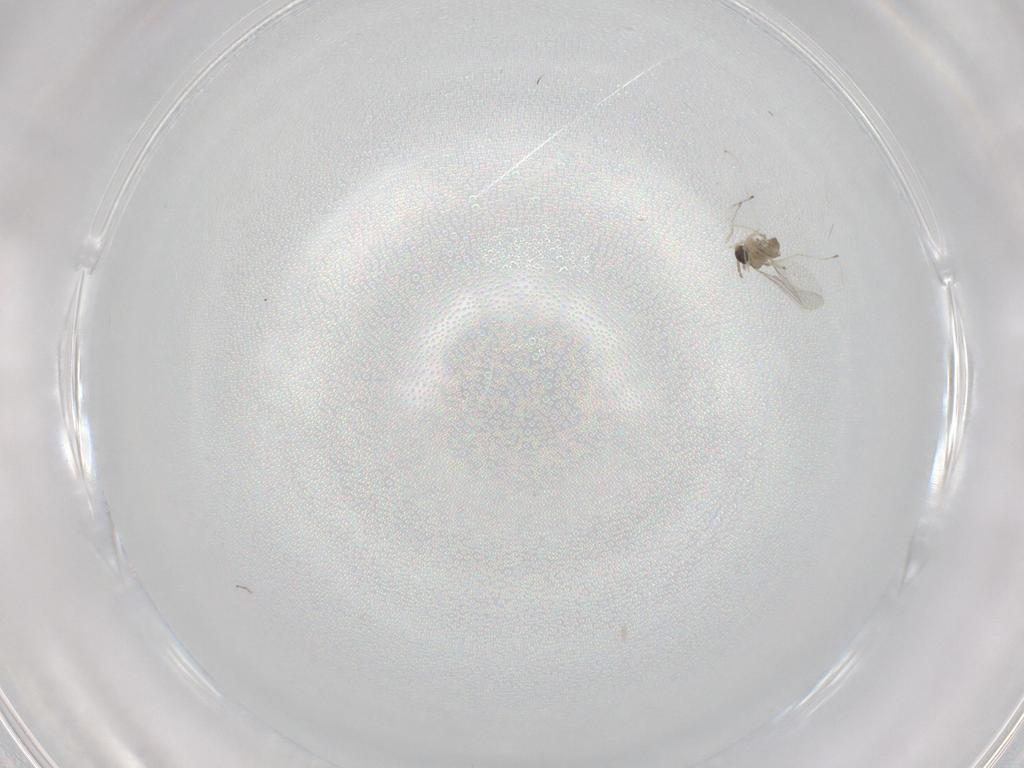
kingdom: Animalia
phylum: Arthropoda
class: Insecta
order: Diptera
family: Cecidomyiidae
